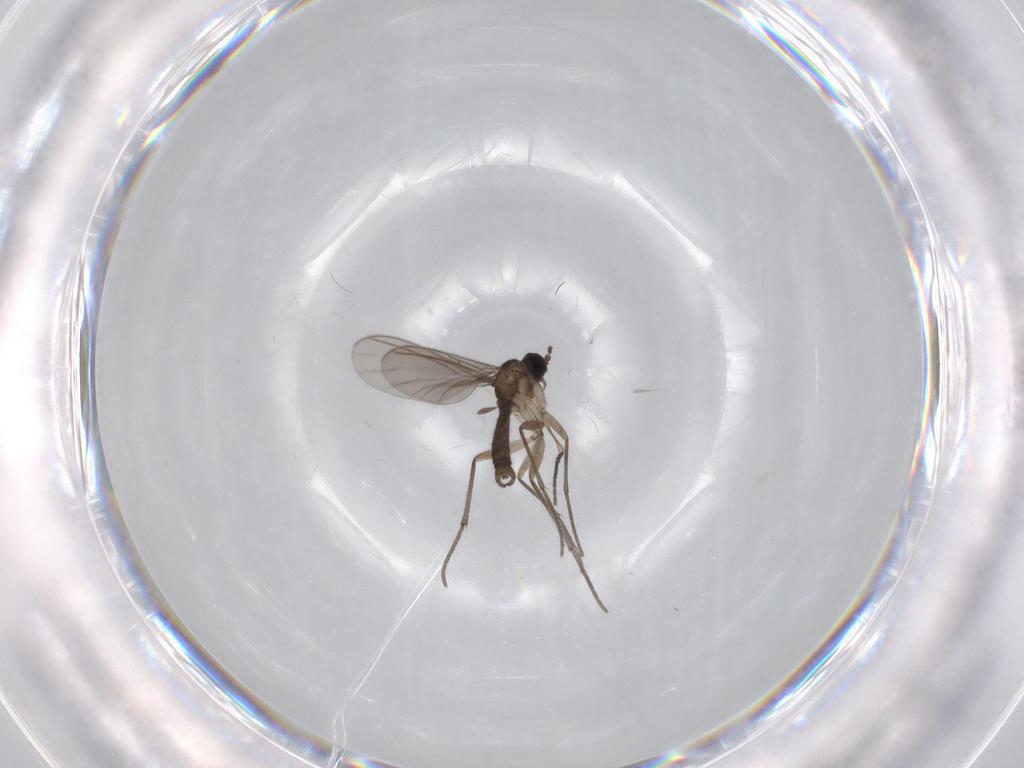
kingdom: Animalia
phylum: Arthropoda
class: Insecta
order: Diptera
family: Sciaridae
